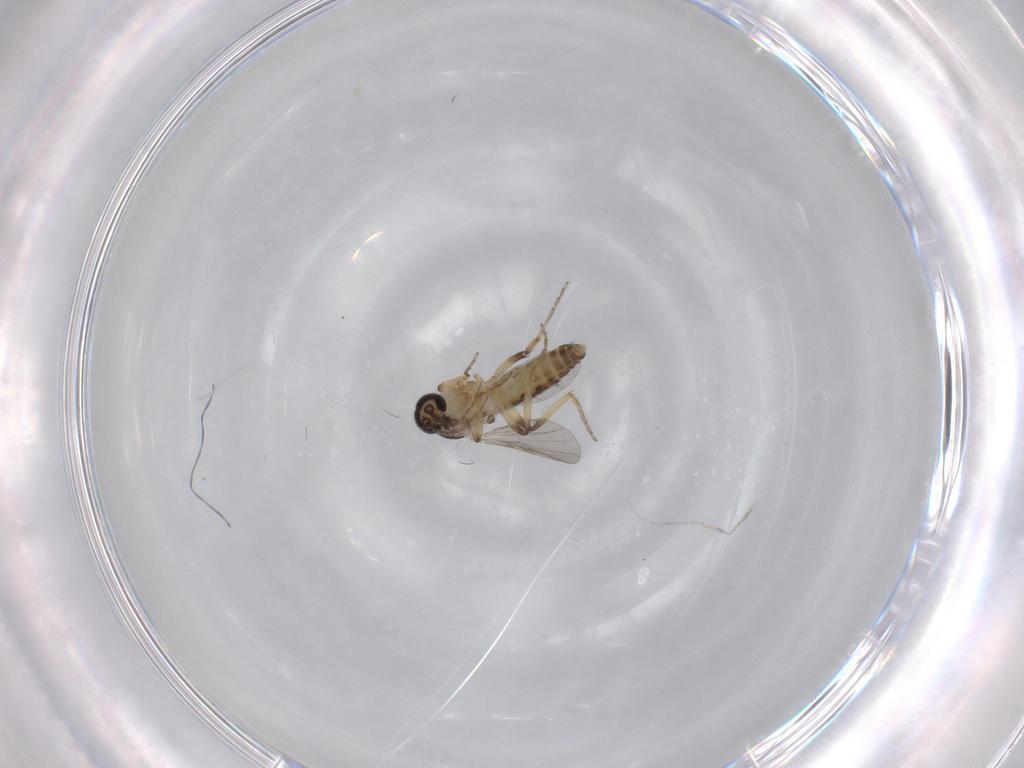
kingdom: Animalia
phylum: Arthropoda
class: Insecta
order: Diptera
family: Ceratopogonidae
